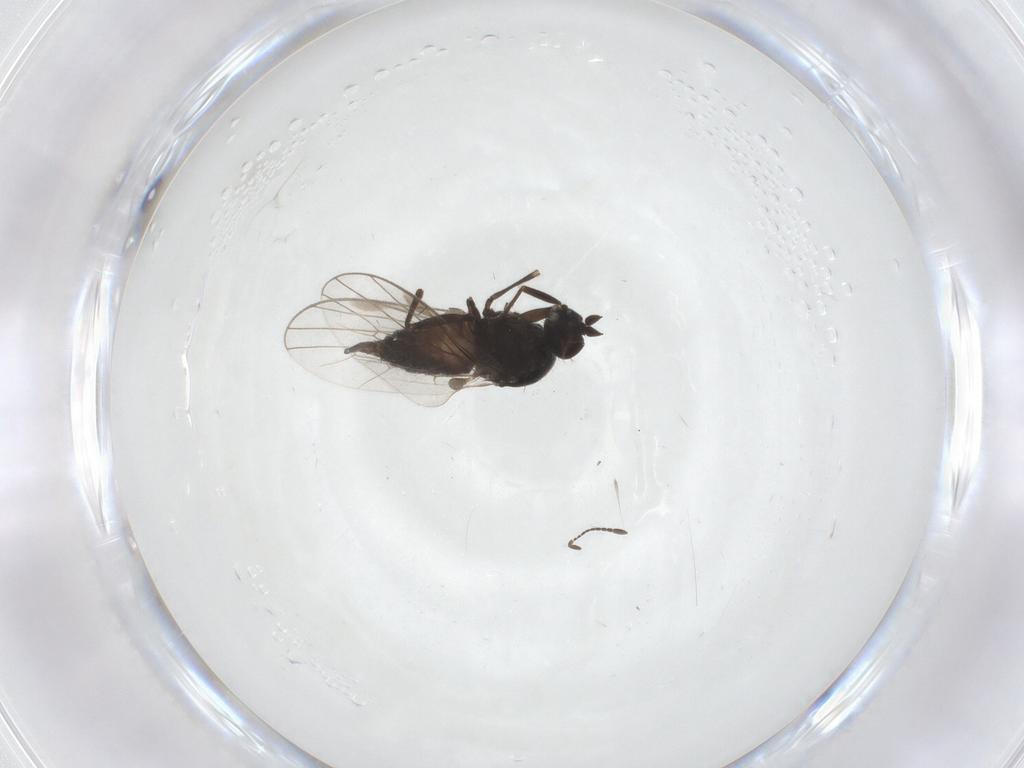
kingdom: Animalia
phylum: Arthropoda
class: Insecta
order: Diptera
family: Hybotidae
